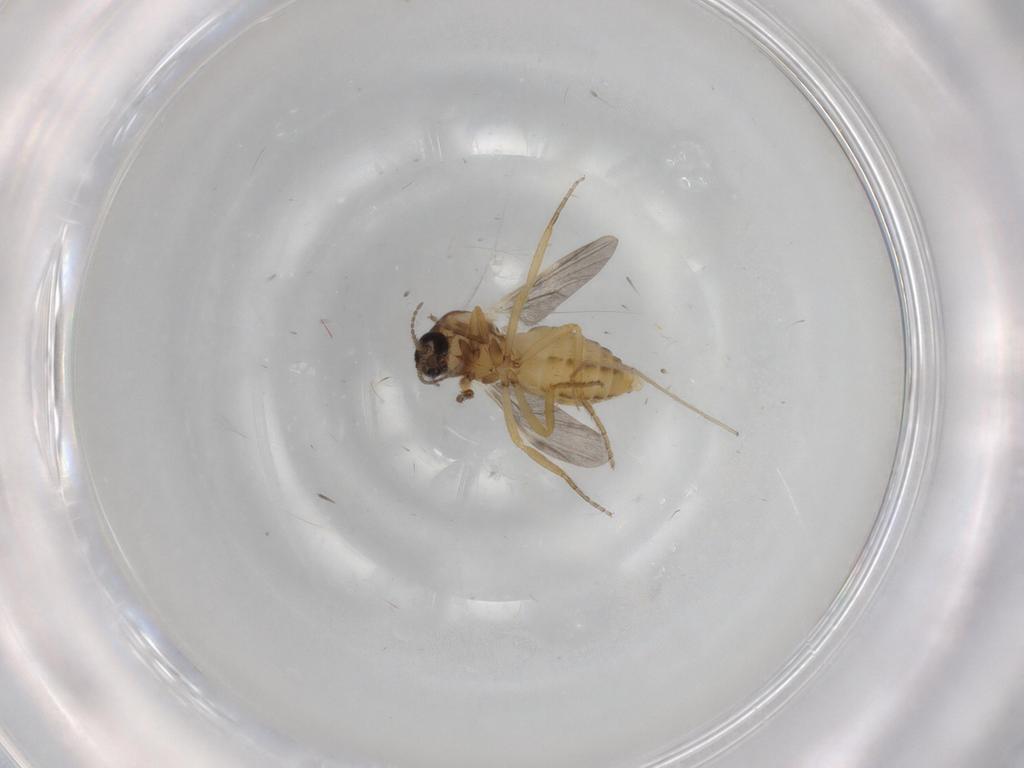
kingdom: Animalia
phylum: Arthropoda
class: Insecta
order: Diptera
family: Ceratopogonidae
